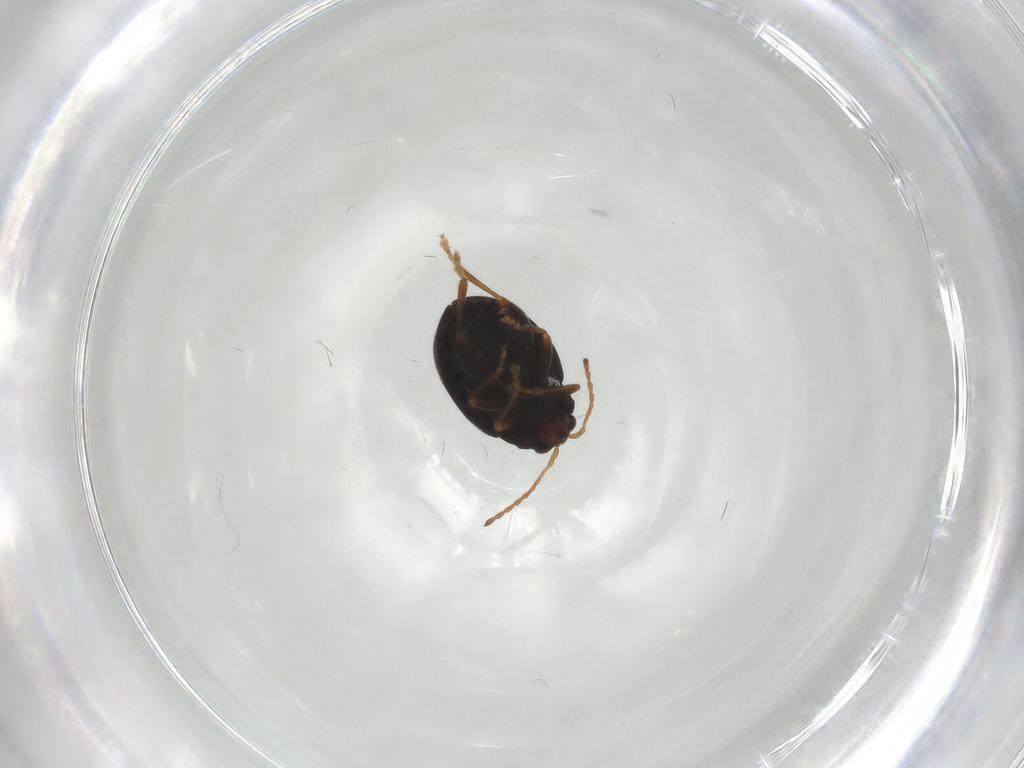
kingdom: Animalia
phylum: Arthropoda
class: Insecta
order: Coleoptera
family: Chrysomelidae
